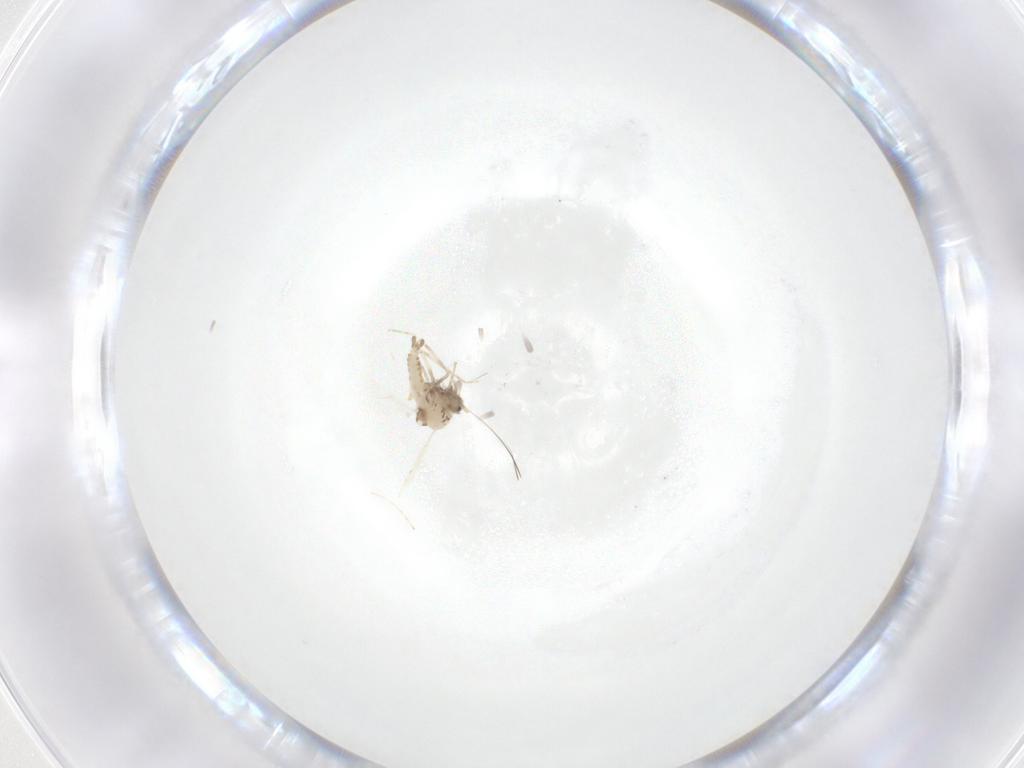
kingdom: Animalia
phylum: Arthropoda
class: Insecta
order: Diptera
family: Ceratopogonidae
